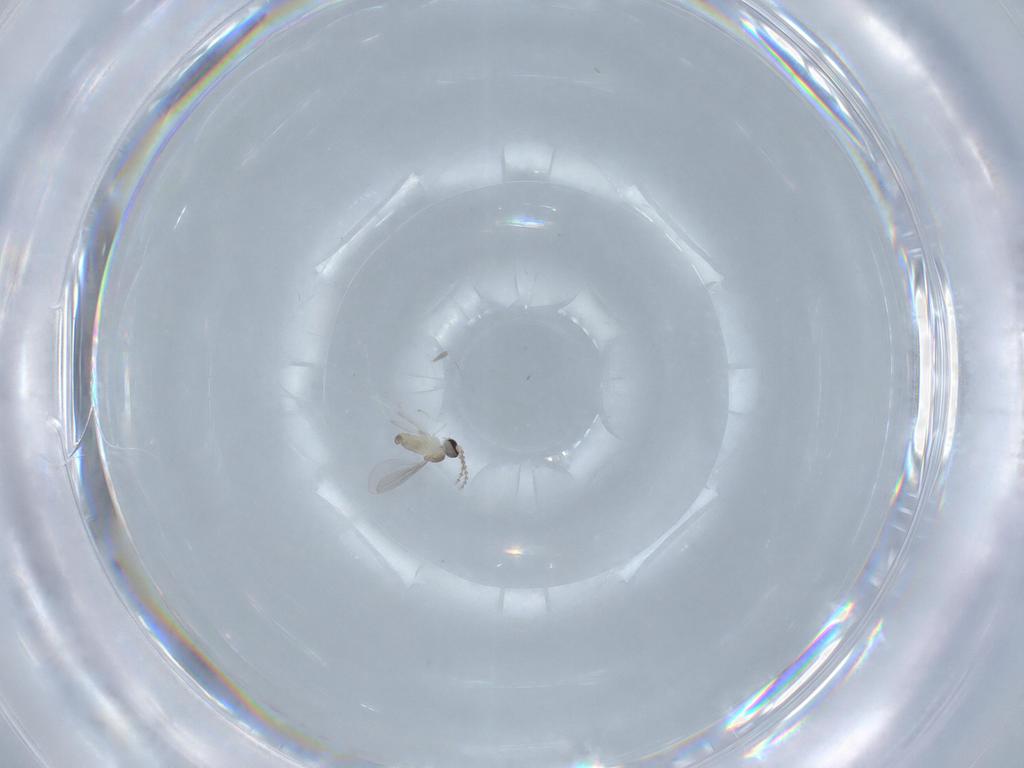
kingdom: Animalia
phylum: Arthropoda
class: Insecta
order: Diptera
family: Cecidomyiidae
